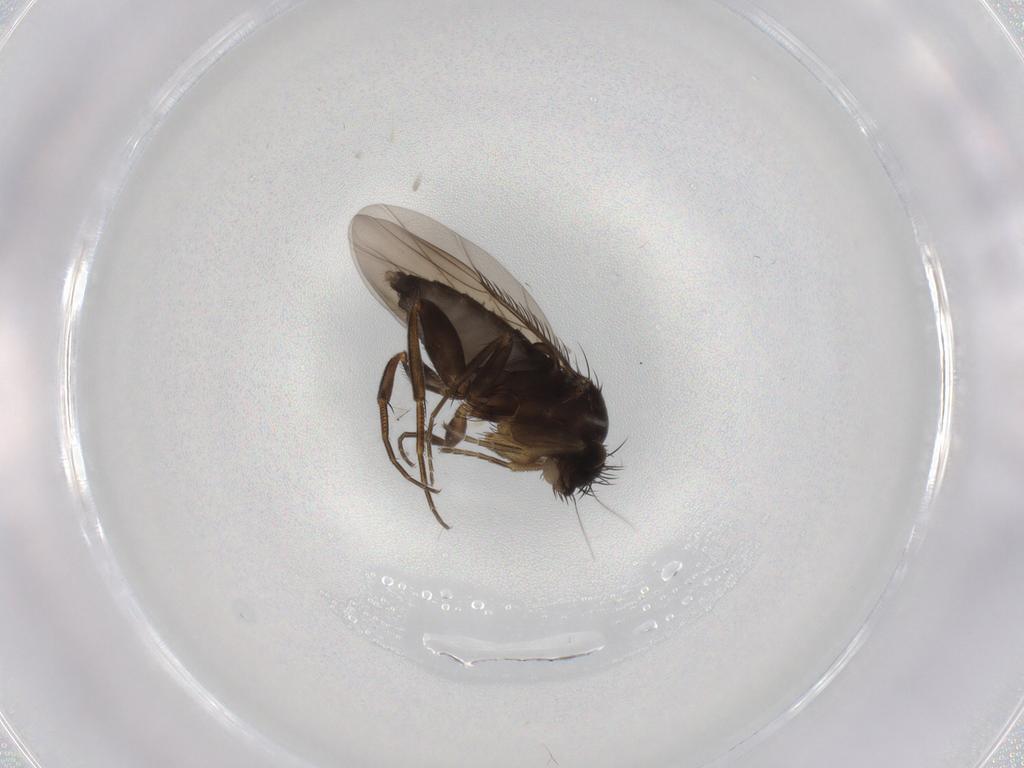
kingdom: Animalia
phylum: Arthropoda
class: Insecta
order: Diptera
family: Phoridae
